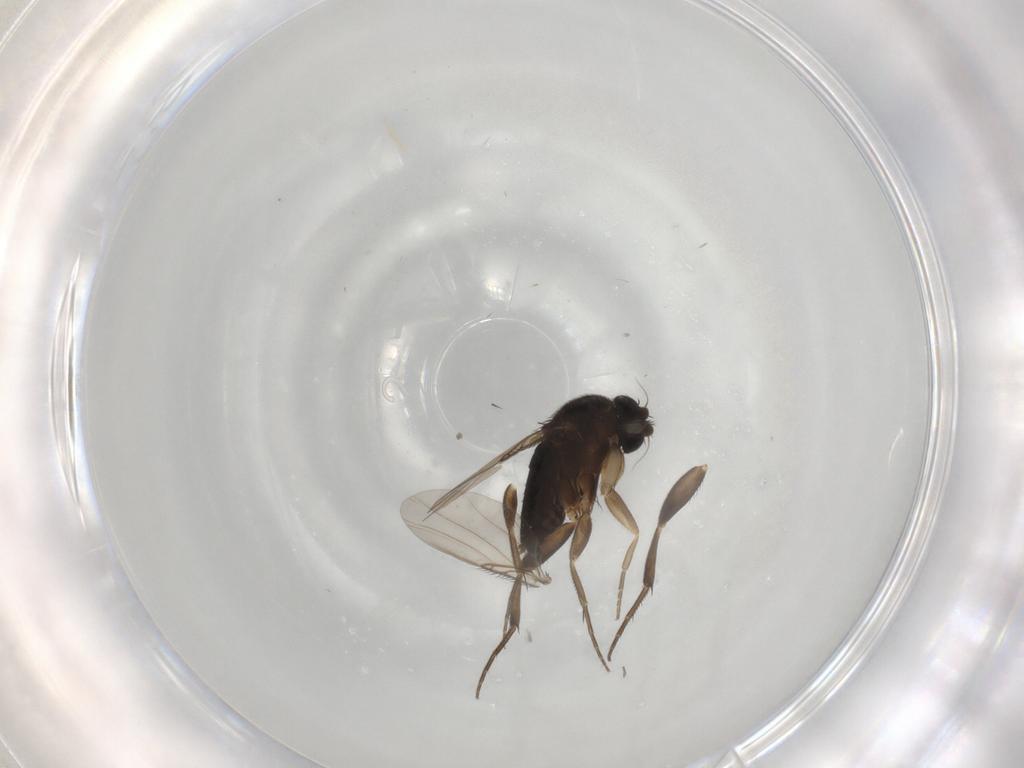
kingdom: Animalia
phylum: Arthropoda
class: Insecta
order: Diptera
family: Phoridae
